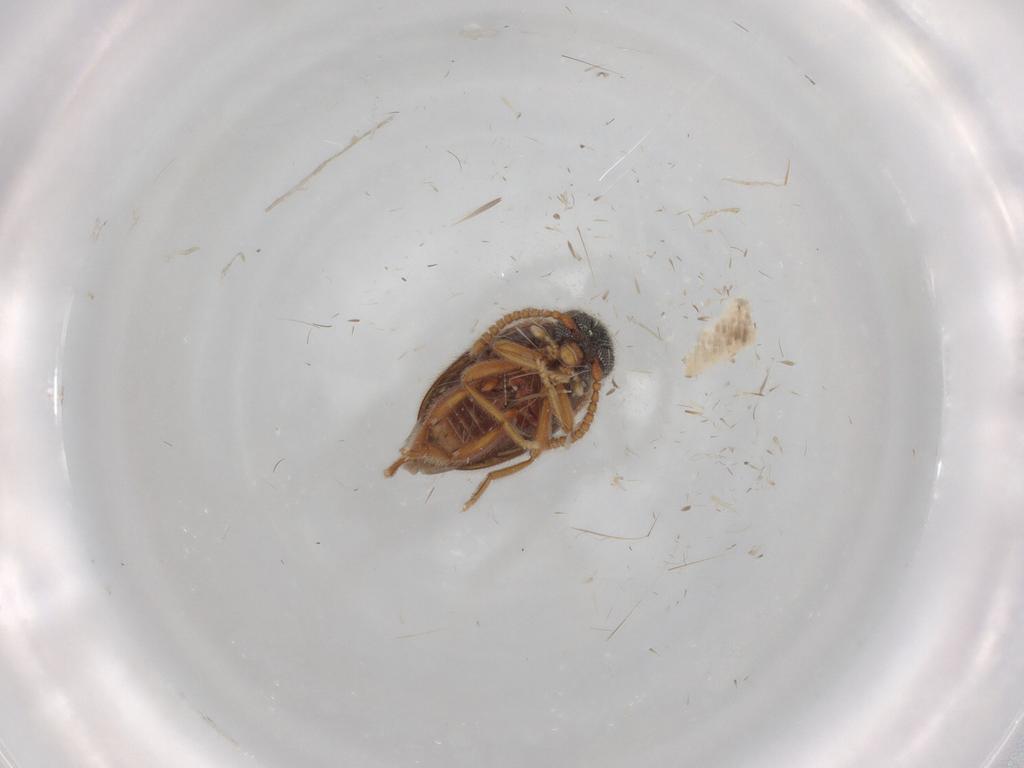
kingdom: Animalia
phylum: Arthropoda
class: Insecta
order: Coleoptera
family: Aderidae
